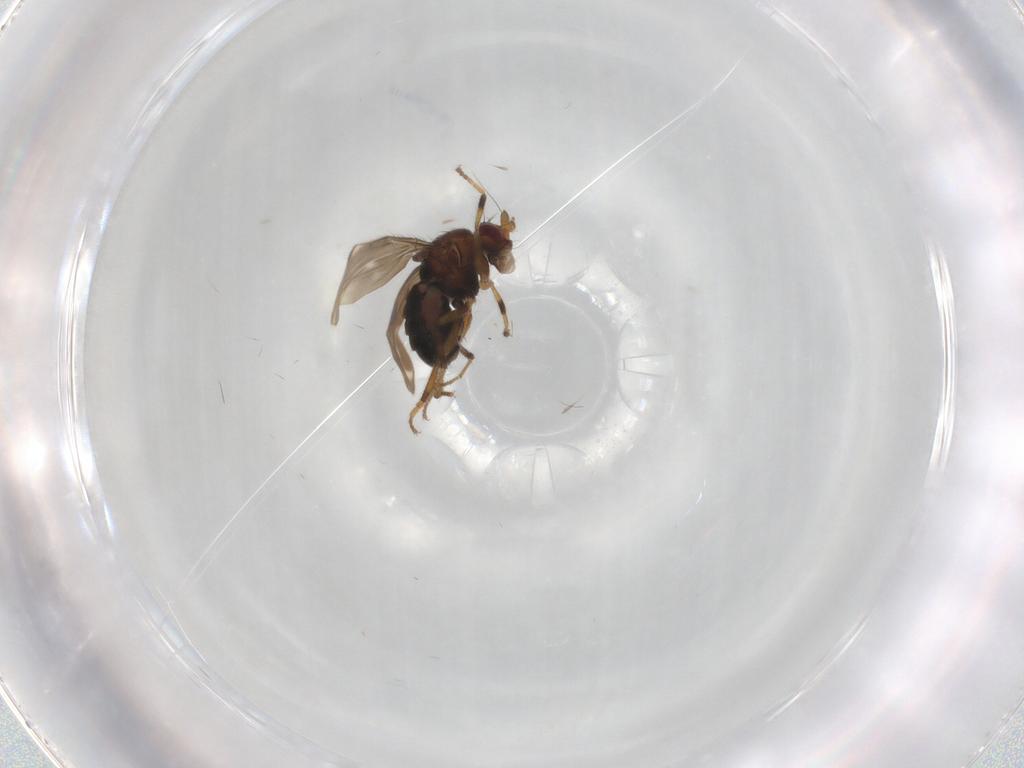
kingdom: Animalia
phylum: Arthropoda
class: Insecta
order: Diptera
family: Sphaeroceridae
